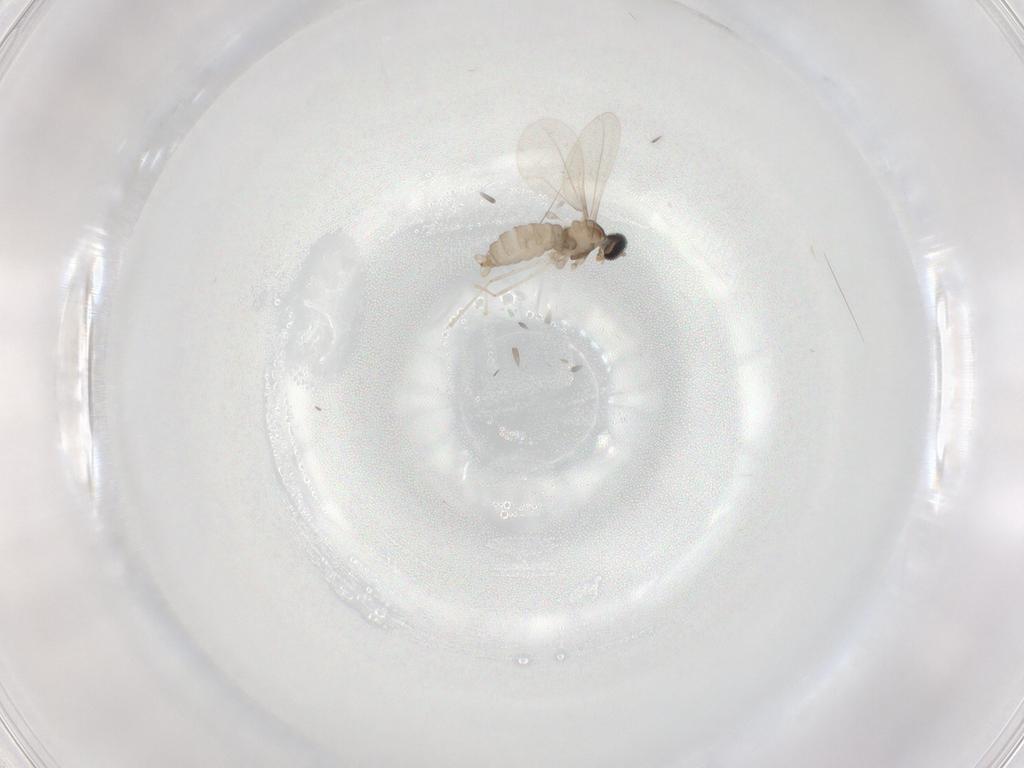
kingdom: Animalia
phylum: Arthropoda
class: Insecta
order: Diptera
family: Cecidomyiidae
